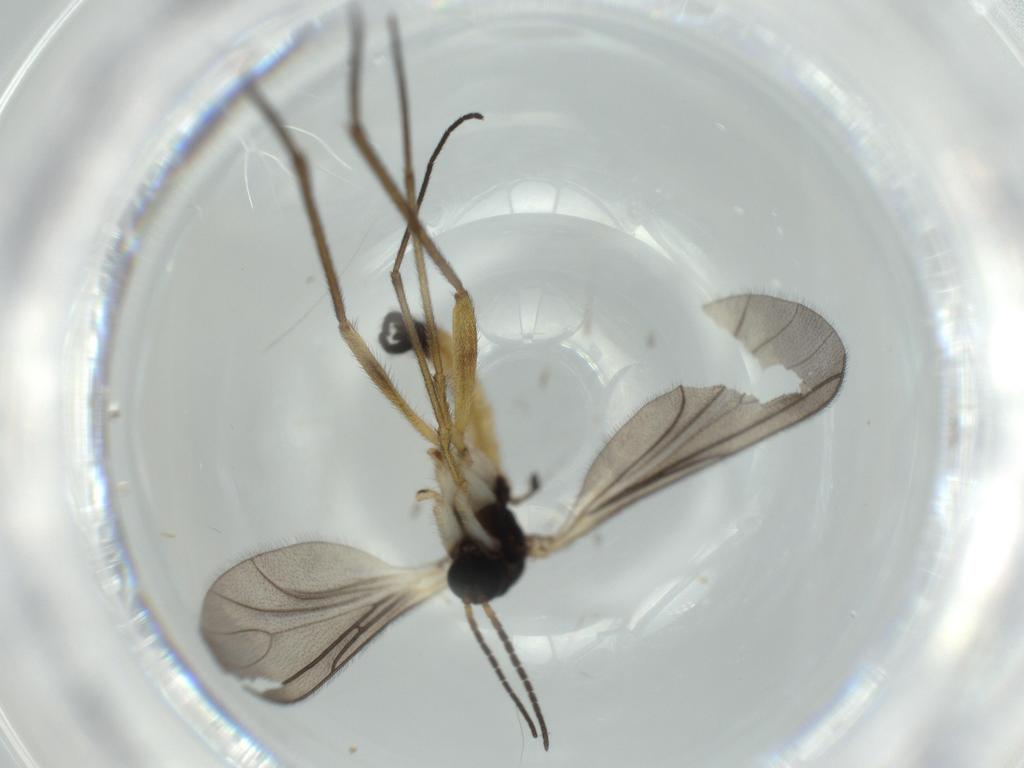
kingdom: Animalia
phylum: Arthropoda
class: Insecta
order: Diptera
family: Sciaridae
